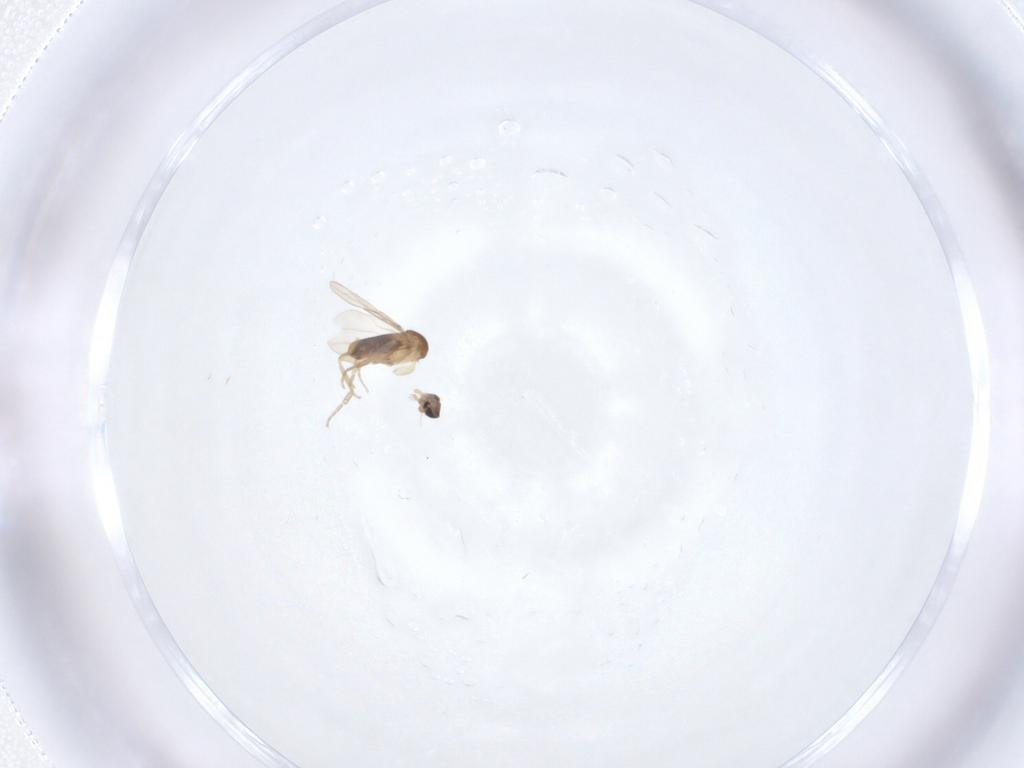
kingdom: Animalia
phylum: Arthropoda
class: Insecta
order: Diptera
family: Phoridae
